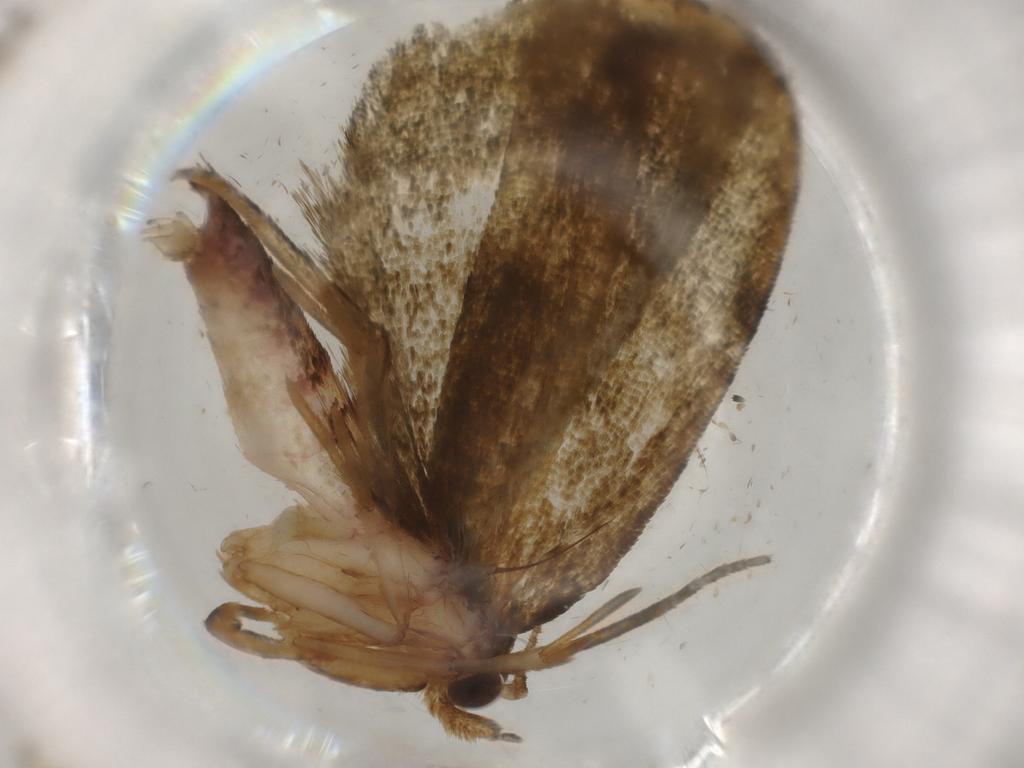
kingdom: Animalia
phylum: Arthropoda
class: Insecta
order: Lepidoptera
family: Geometridae
